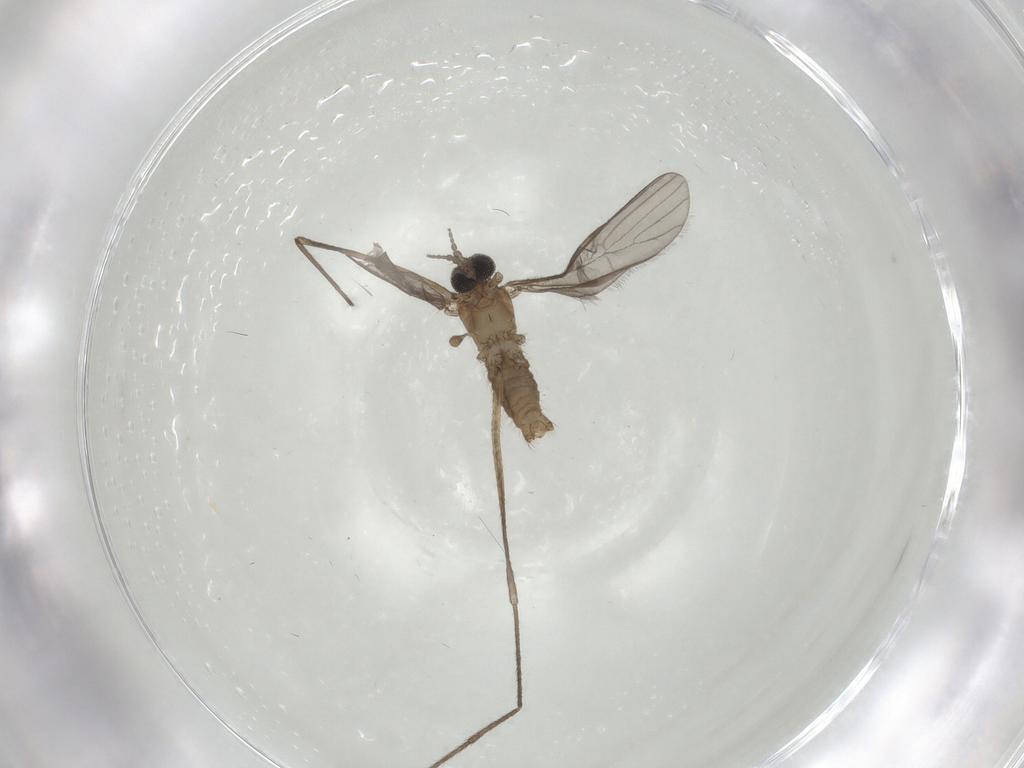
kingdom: Animalia
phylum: Arthropoda
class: Insecta
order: Diptera
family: Limoniidae
